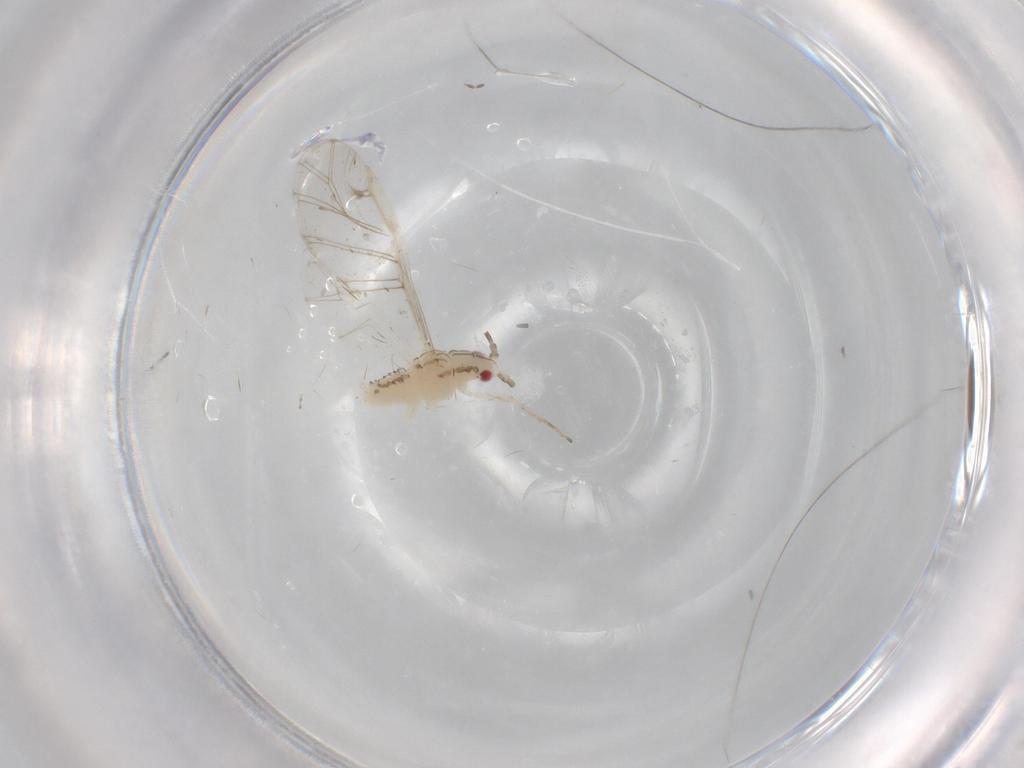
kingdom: Animalia
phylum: Arthropoda
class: Insecta
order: Hemiptera
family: Aphididae
